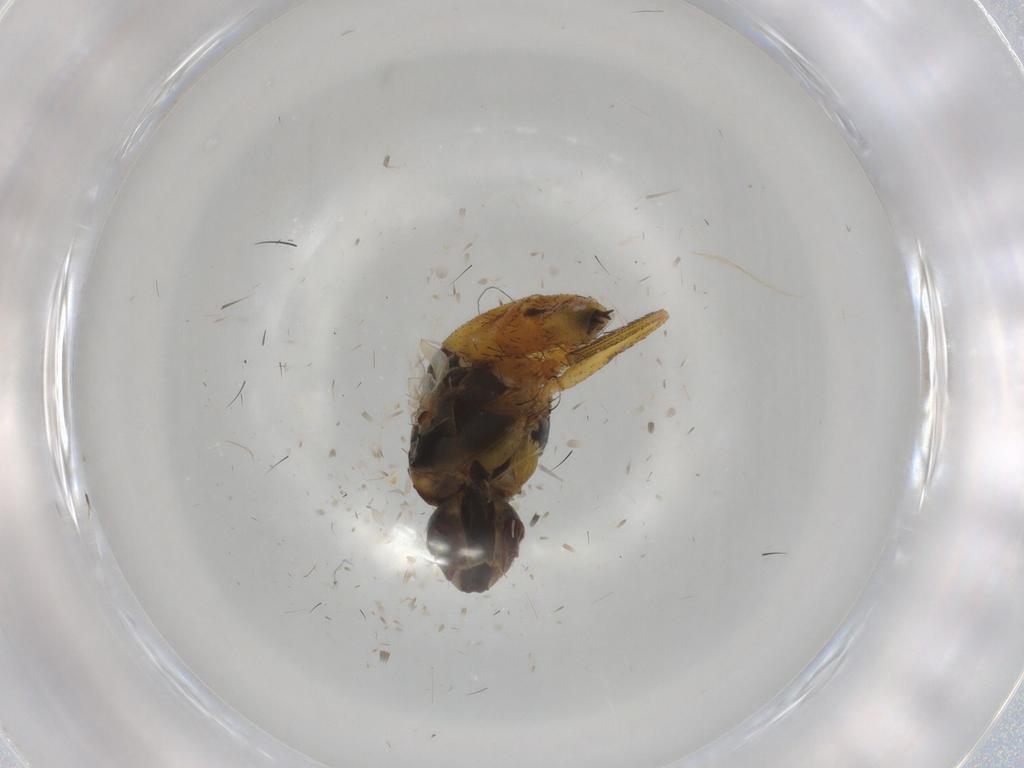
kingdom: Animalia
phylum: Arthropoda
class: Insecta
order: Diptera
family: Muscidae
